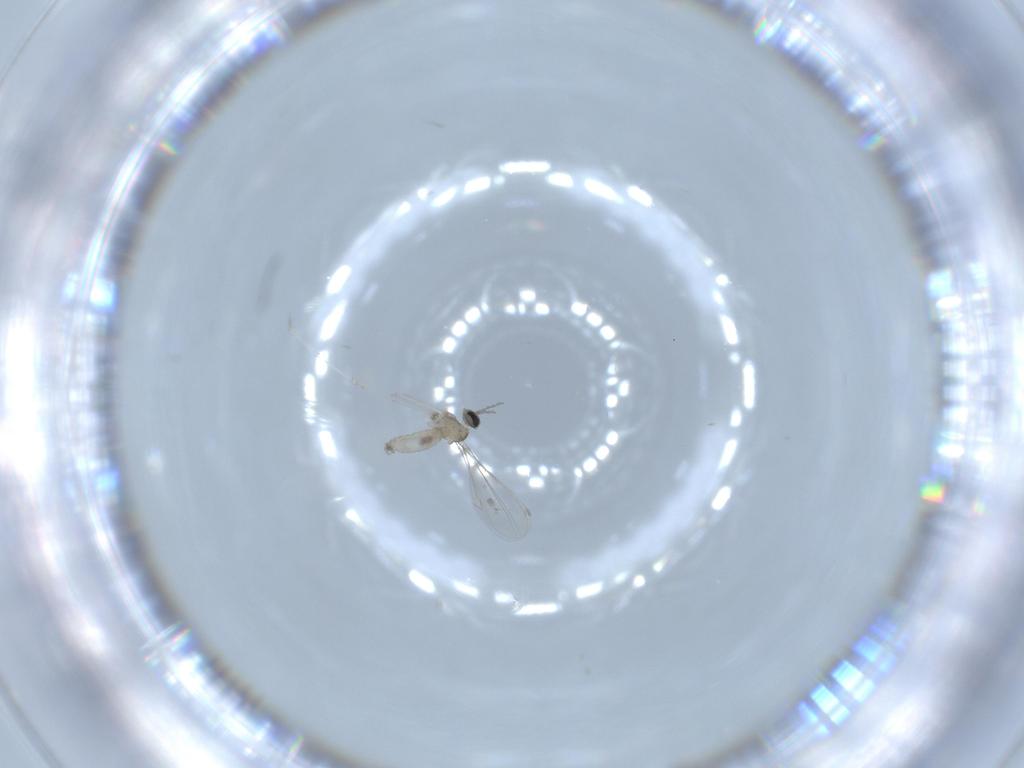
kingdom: Animalia
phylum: Arthropoda
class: Insecta
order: Diptera
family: Cecidomyiidae
